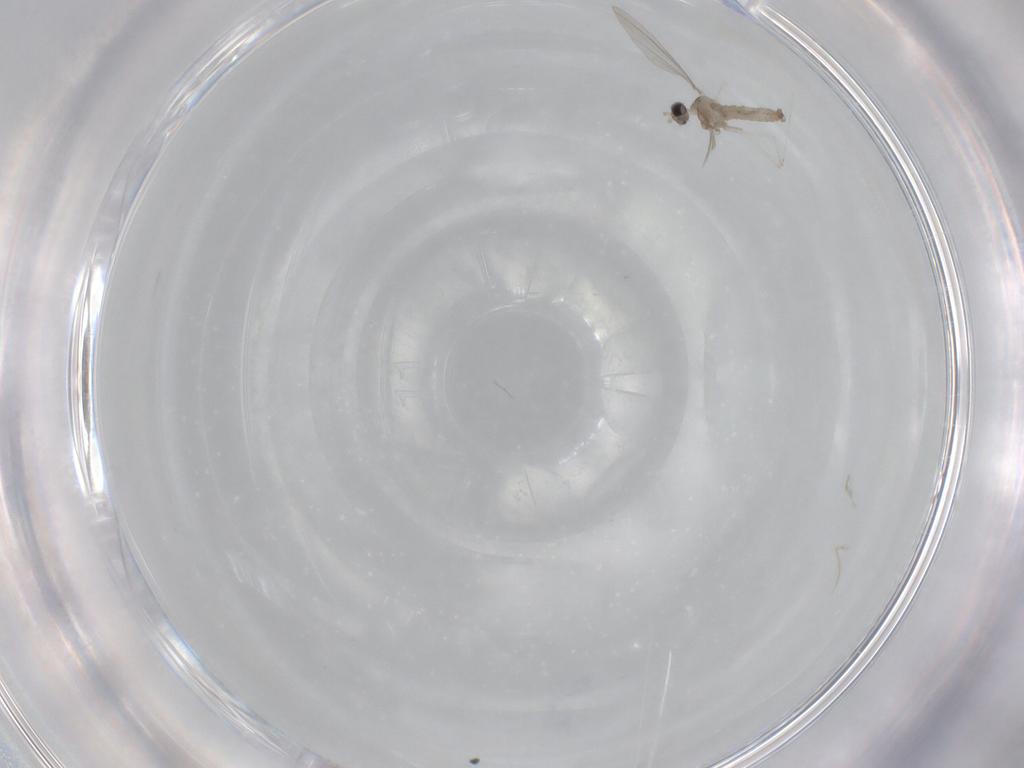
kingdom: Animalia
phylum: Arthropoda
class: Insecta
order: Diptera
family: Cecidomyiidae
